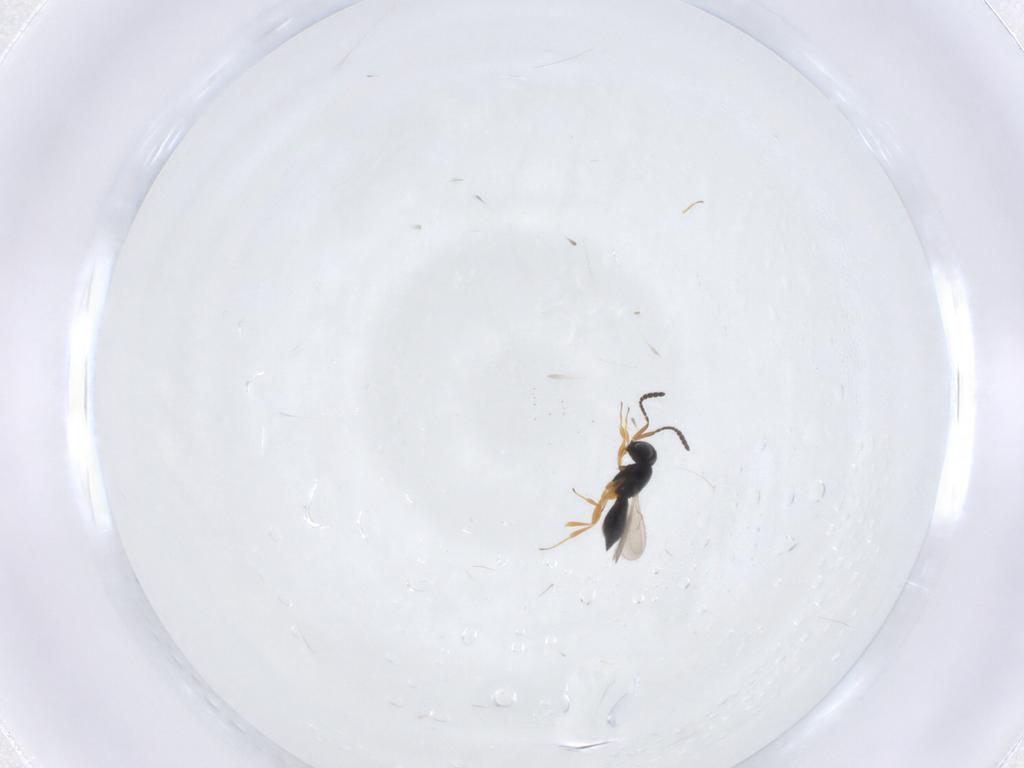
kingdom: Animalia
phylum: Arthropoda
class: Insecta
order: Hymenoptera
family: Scelionidae
